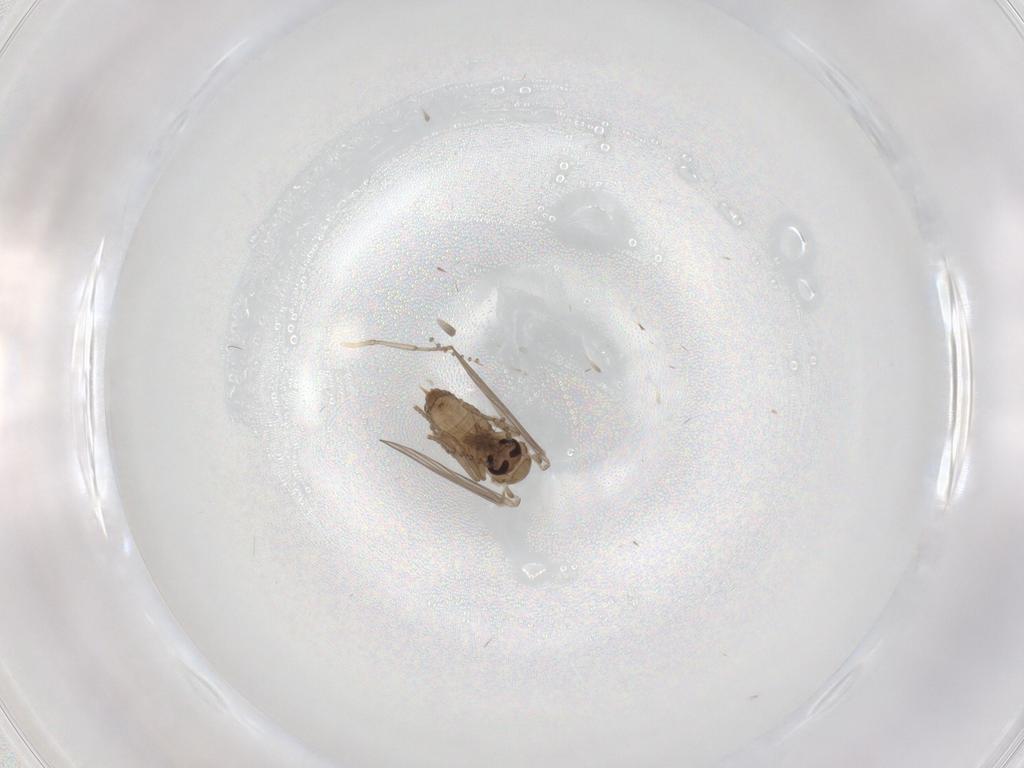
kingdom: Animalia
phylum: Arthropoda
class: Insecta
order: Diptera
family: Psychodidae
